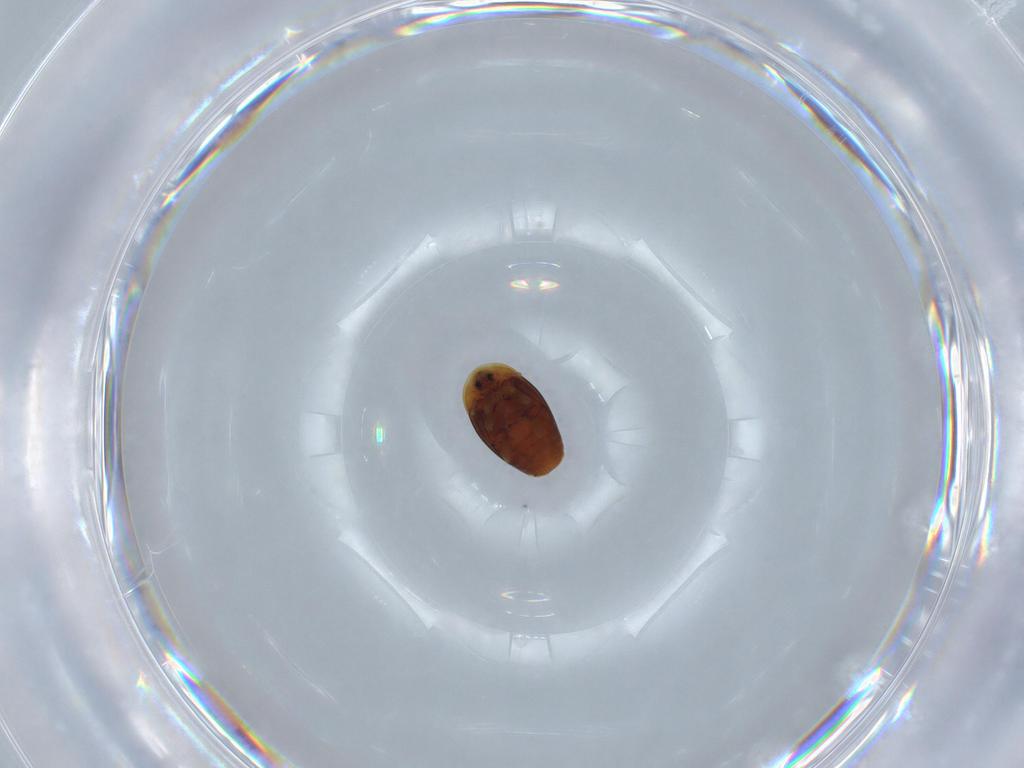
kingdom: Animalia
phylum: Arthropoda
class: Insecta
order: Coleoptera
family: Corylophidae
